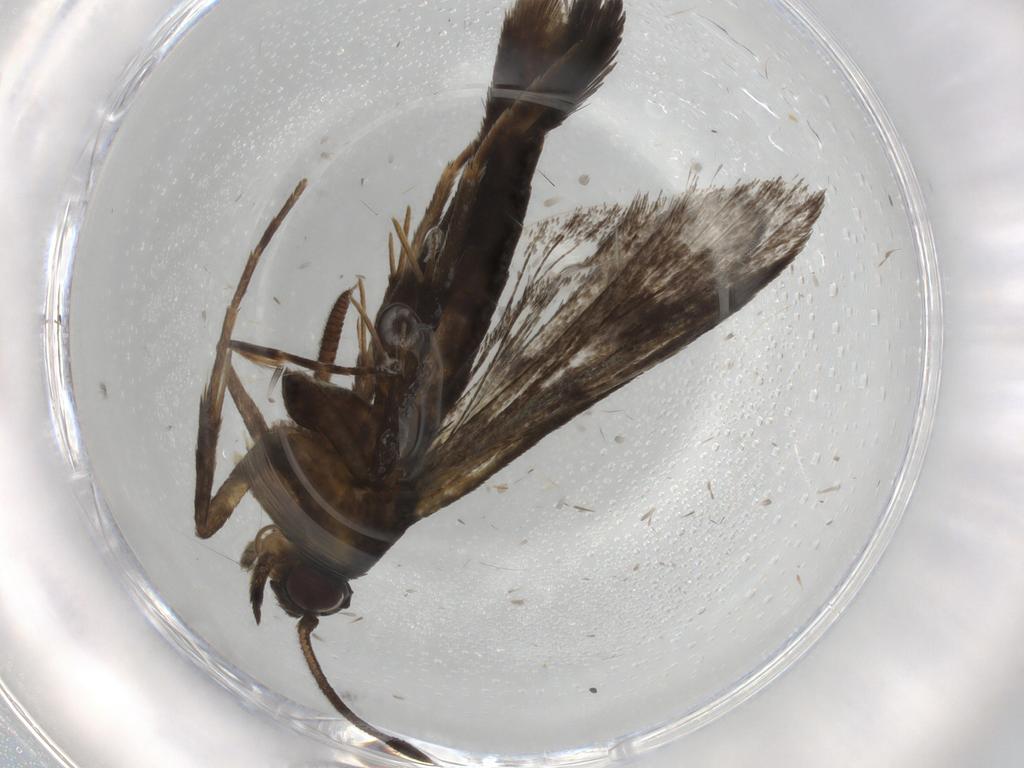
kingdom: Animalia
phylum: Arthropoda
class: Insecta
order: Lepidoptera
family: Sesiidae
